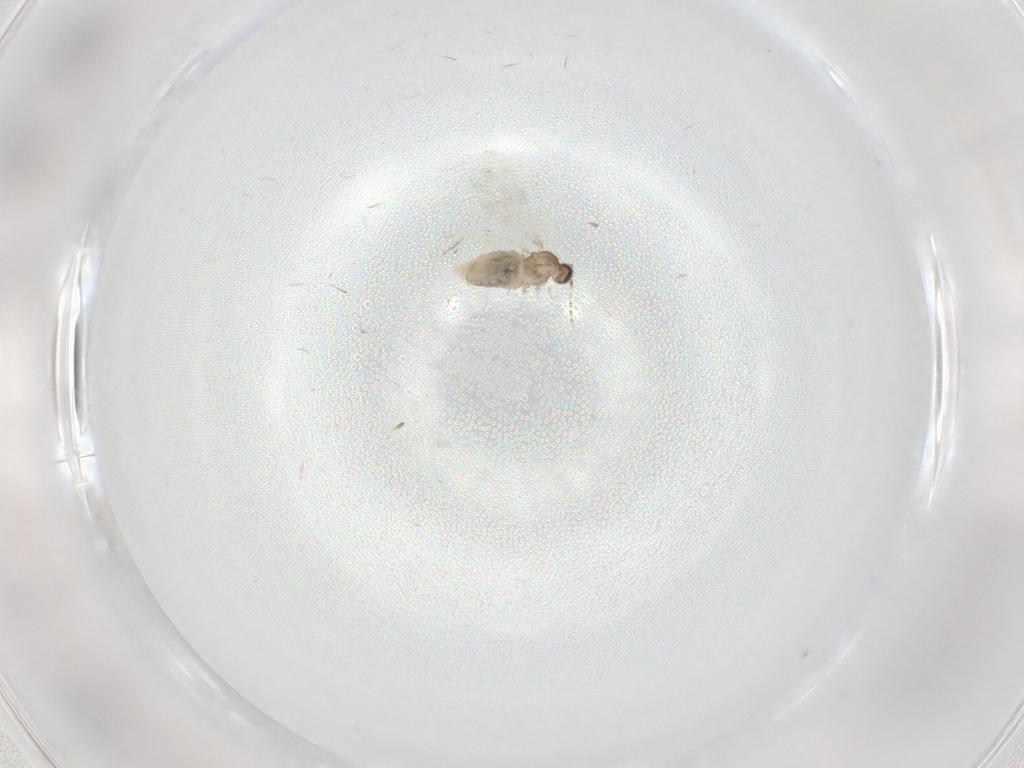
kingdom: Animalia
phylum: Arthropoda
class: Insecta
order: Diptera
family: Cecidomyiidae
